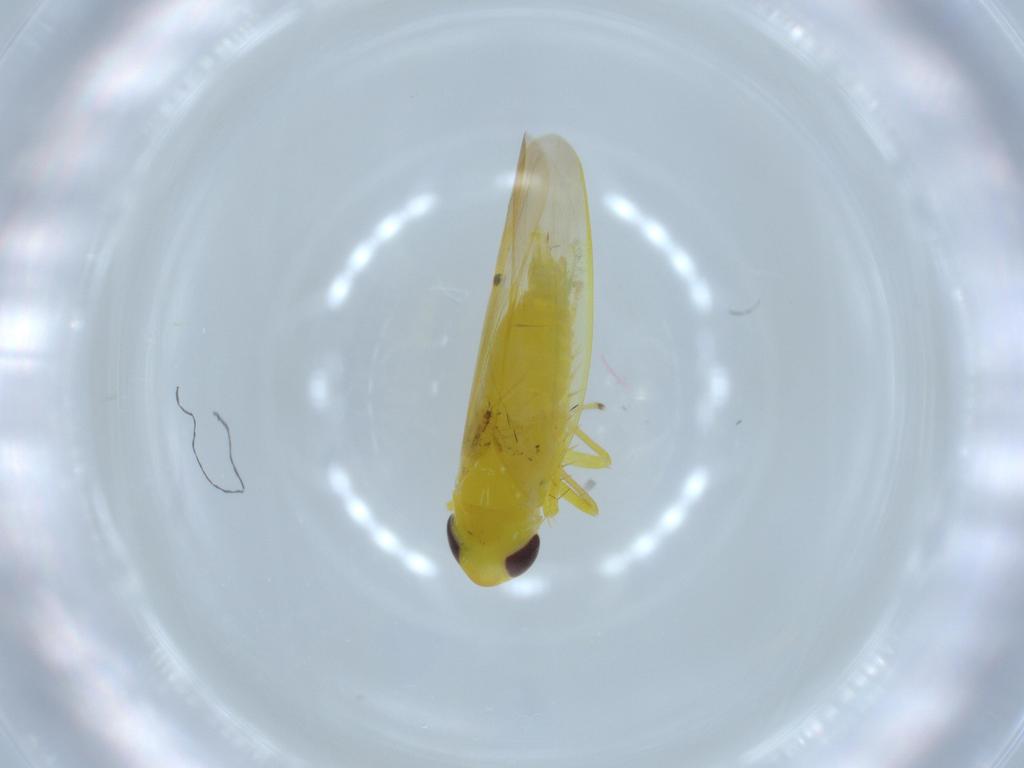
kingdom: Animalia
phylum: Arthropoda
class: Insecta
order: Hemiptera
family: Cicadellidae
